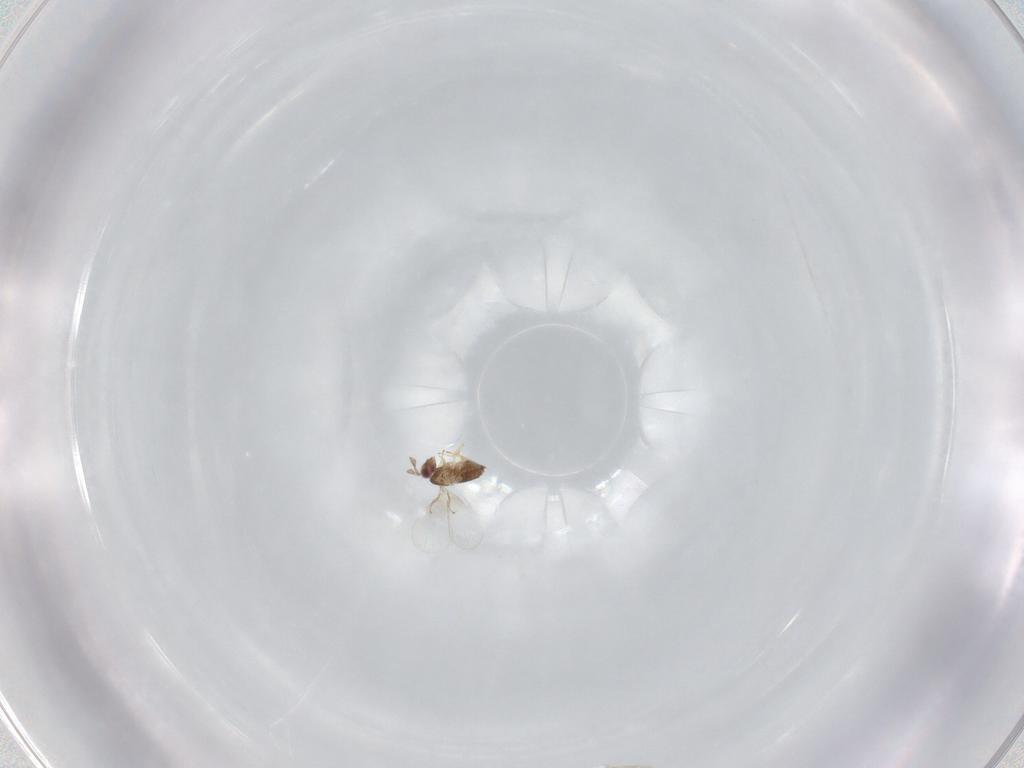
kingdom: Animalia
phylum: Arthropoda
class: Insecta
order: Hymenoptera
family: Trichogrammatidae
